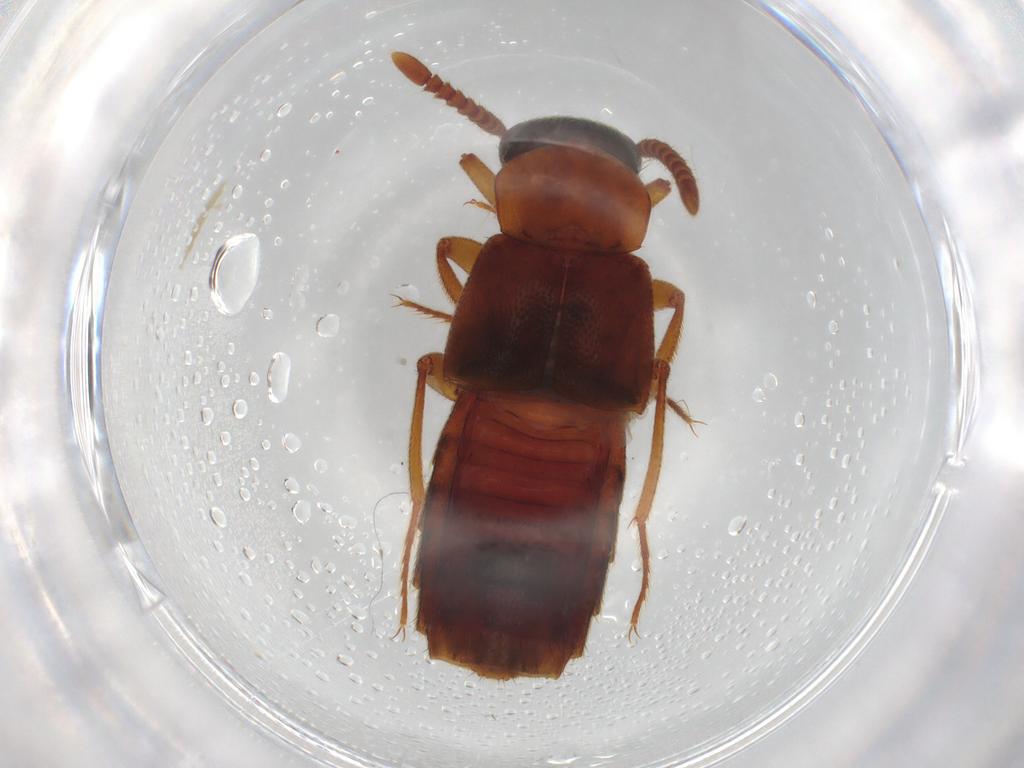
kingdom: Animalia
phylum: Arthropoda
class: Insecta
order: Coleoptera
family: Staphylinidae
